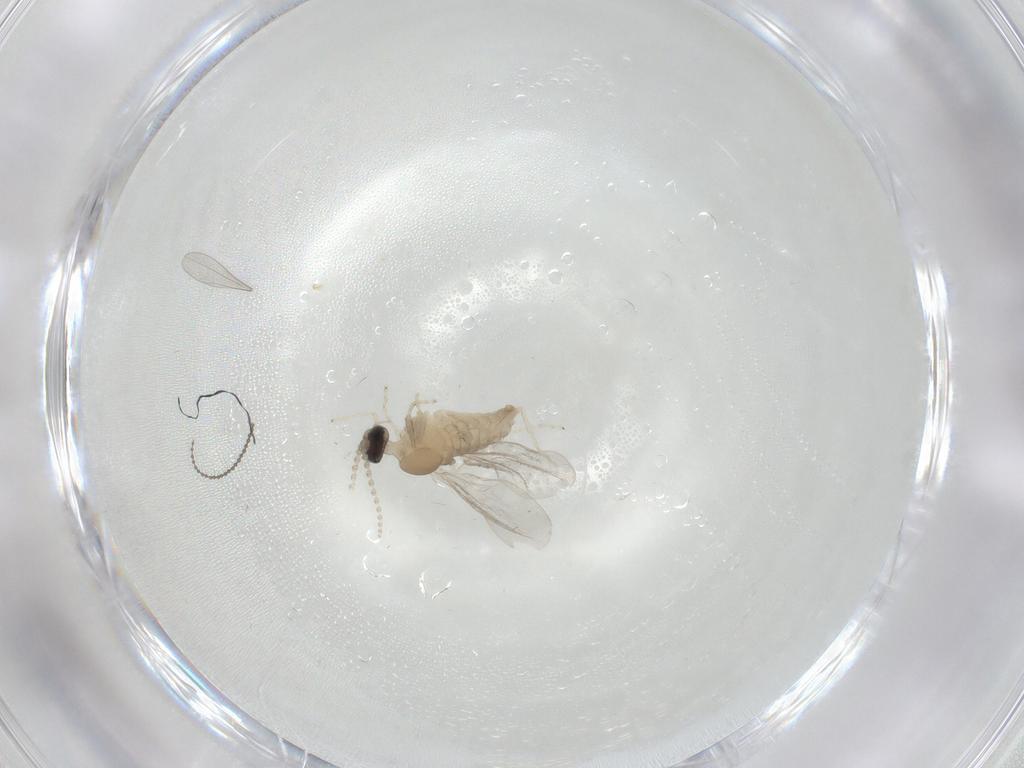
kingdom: Animalia
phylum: Arthropoda
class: Insecta
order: Diptera
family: Cecidomyiidae
